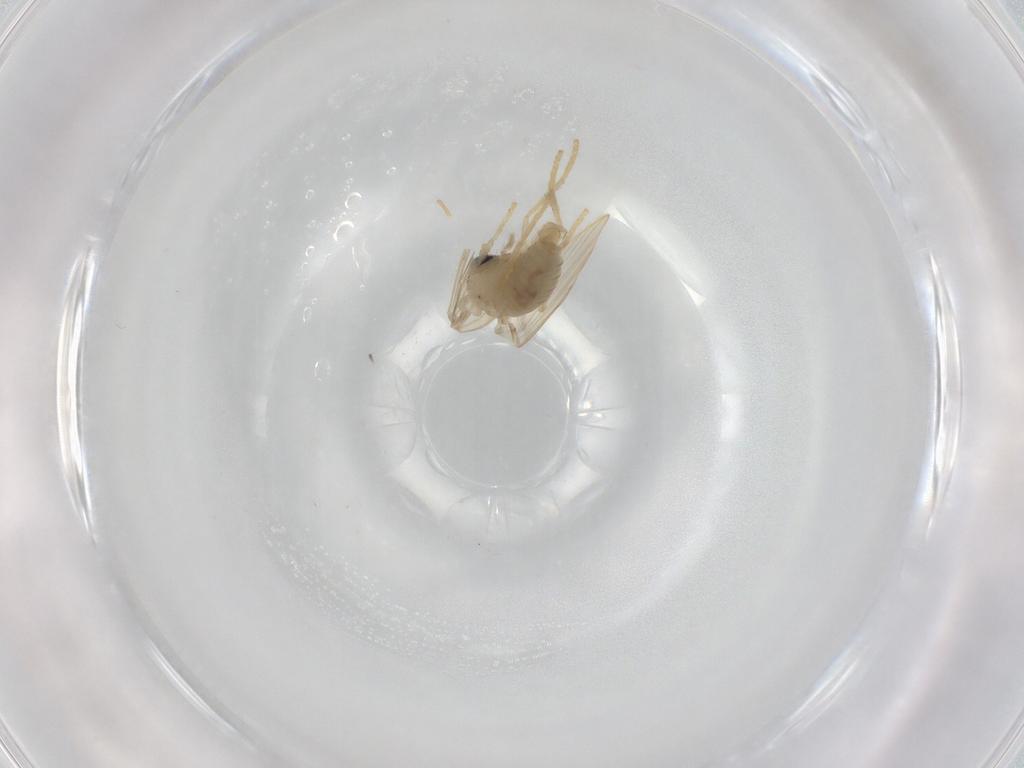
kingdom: Animalia
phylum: Arthropoda
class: Insecta
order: Diptera
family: Psychodidae
